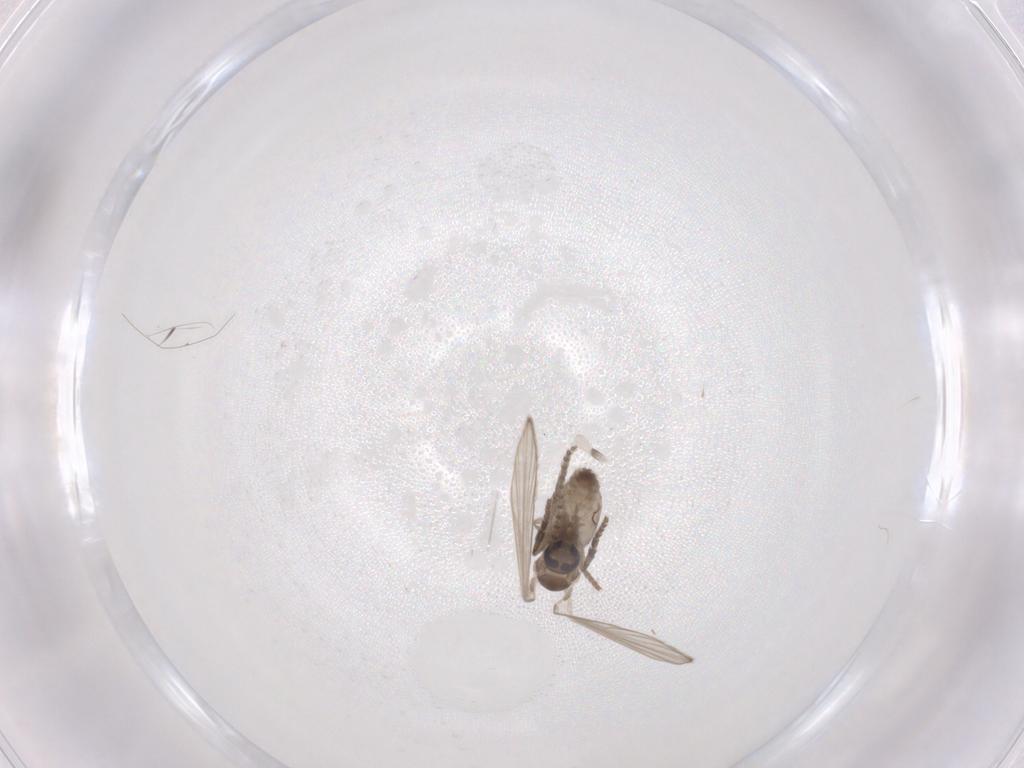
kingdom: Animalia
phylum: Arthropoda
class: Insecta
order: Diptera
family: Psychodidae
